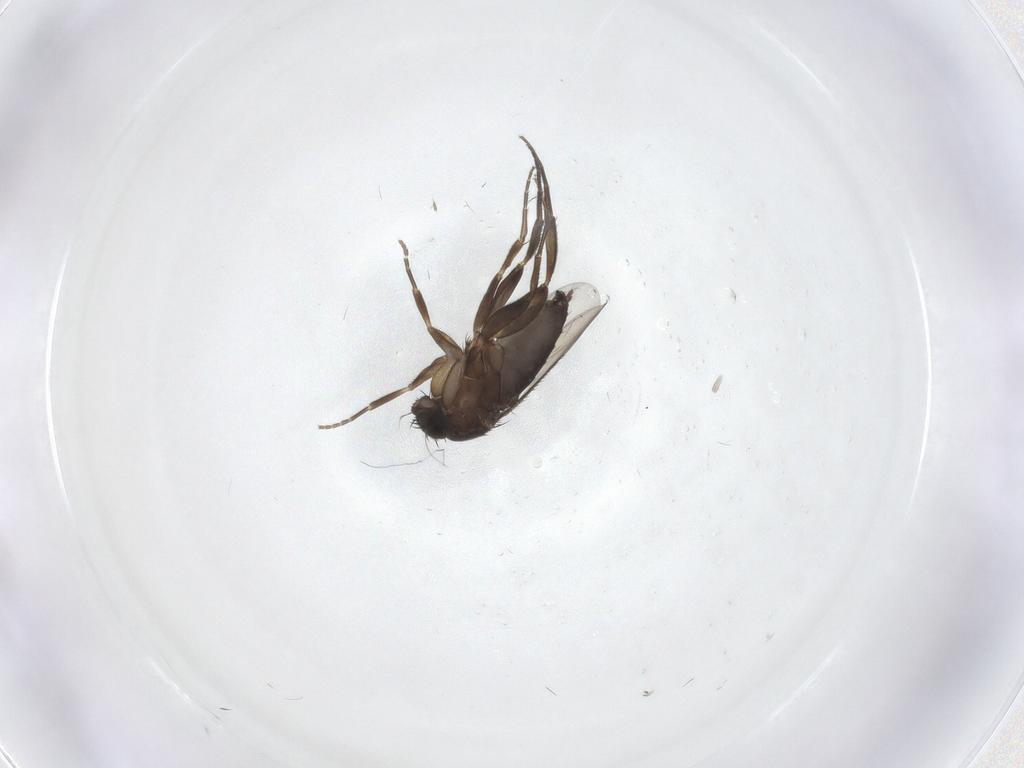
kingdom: Animalia
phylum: Arthropoda
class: Insecta
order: Diptera
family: Phoridae
